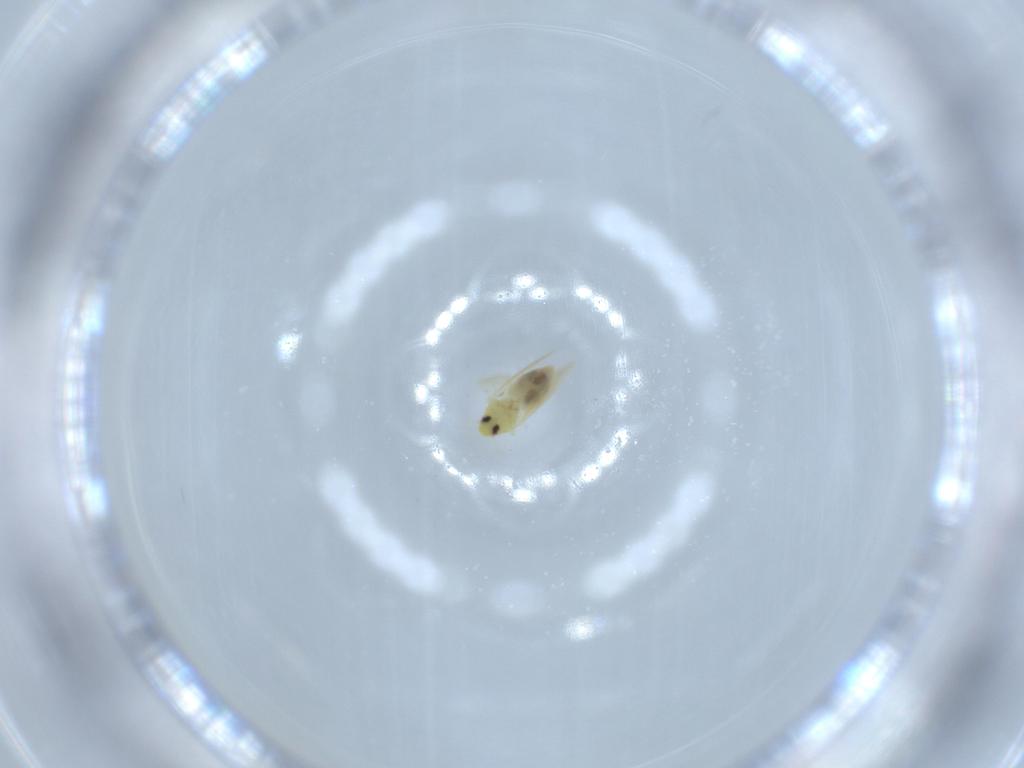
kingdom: Animalia
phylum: Arthropoda
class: Insecta
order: Hemiptera
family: Aleyrodidae
